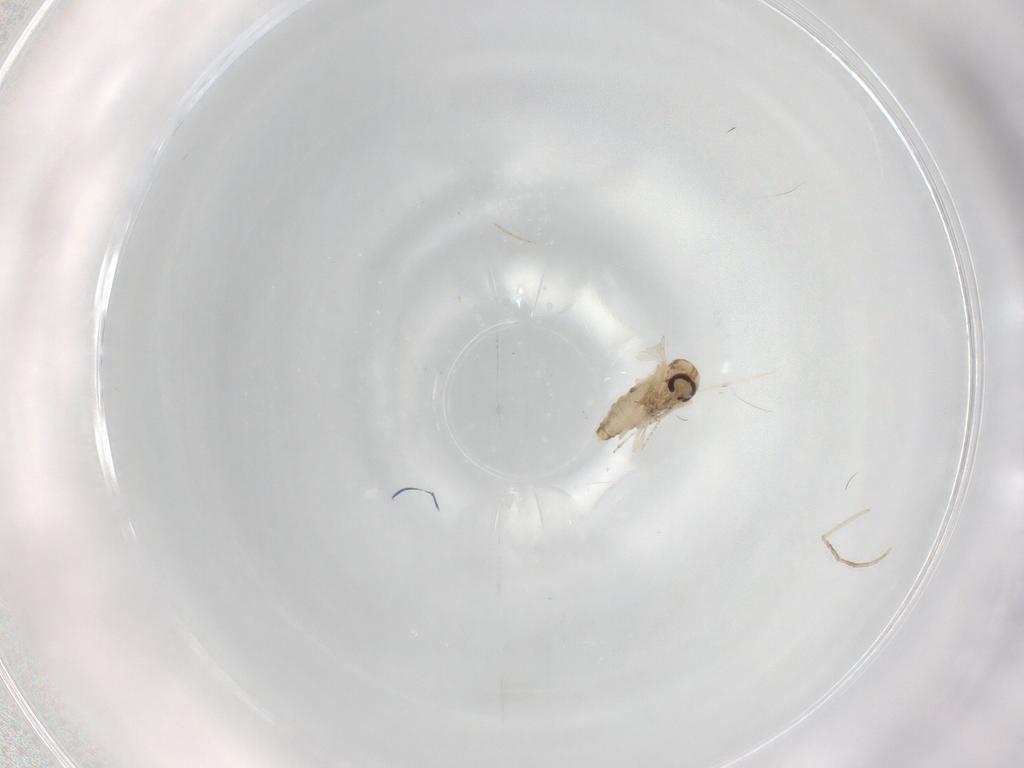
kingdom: Animalia
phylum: Arthropoda
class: Insecta
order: Diptera
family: Ceratopogonidae
